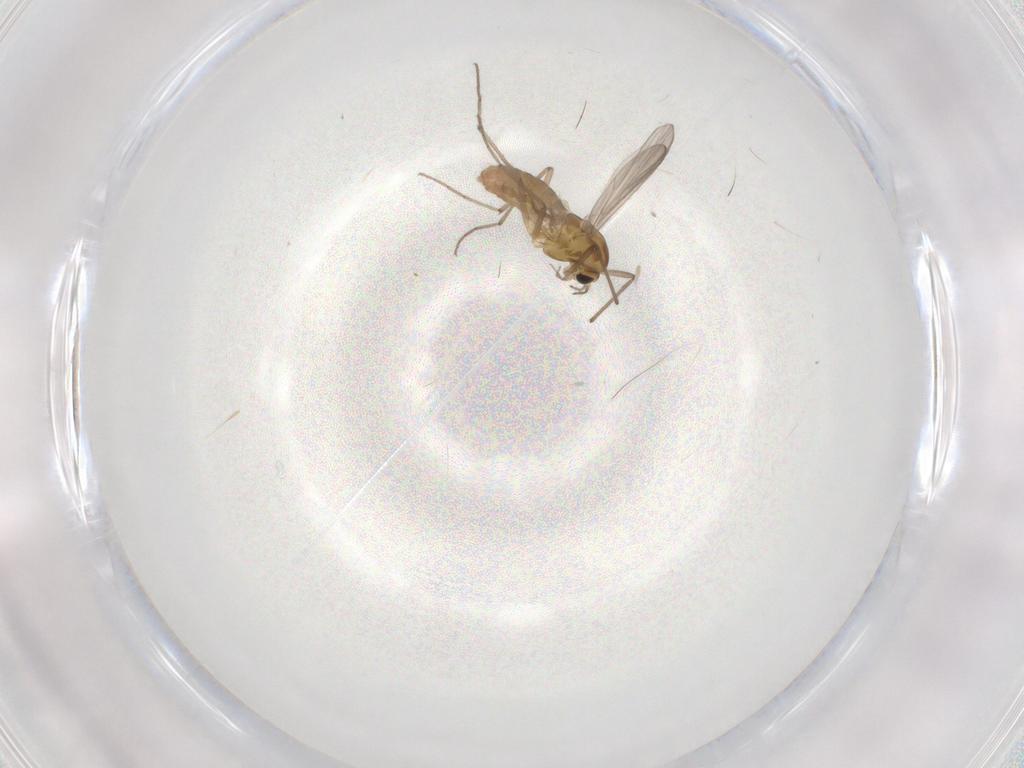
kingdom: Animalia
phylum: Arthropoda
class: Insecta
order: Diptera
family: Chironomidae
